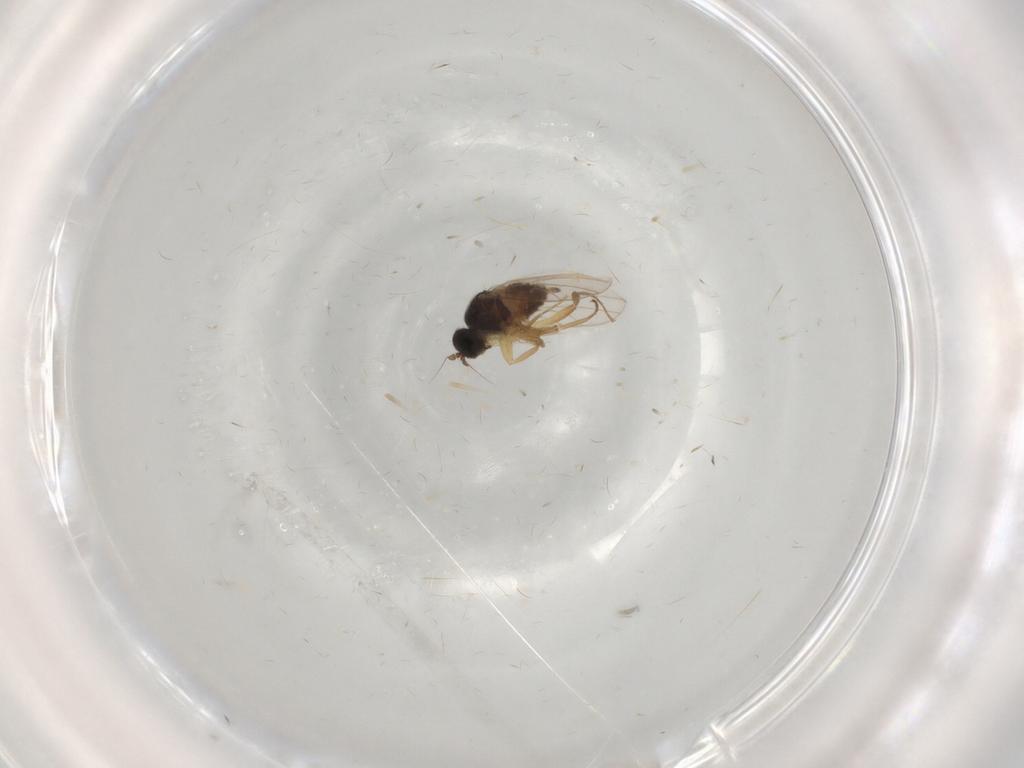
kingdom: Animalia
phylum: Arthropoda
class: Insecta
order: Diptera
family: Hybotidae
